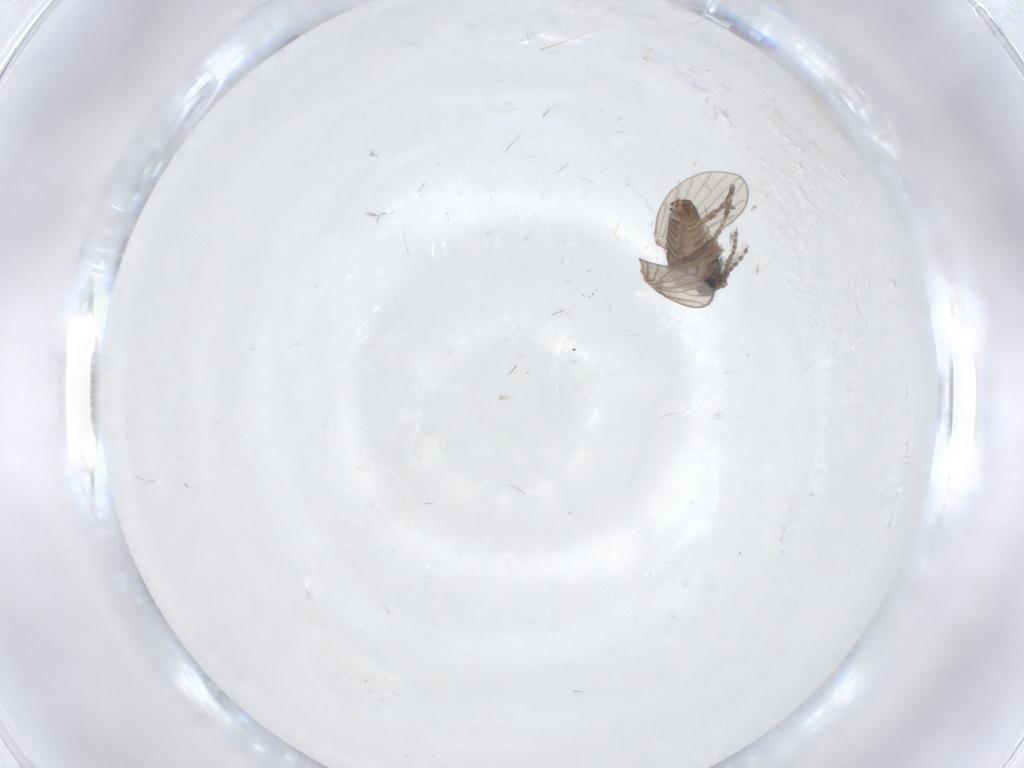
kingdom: Animalia
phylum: Arthropoda
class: Insecta
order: Diptera
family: Psychodidae
